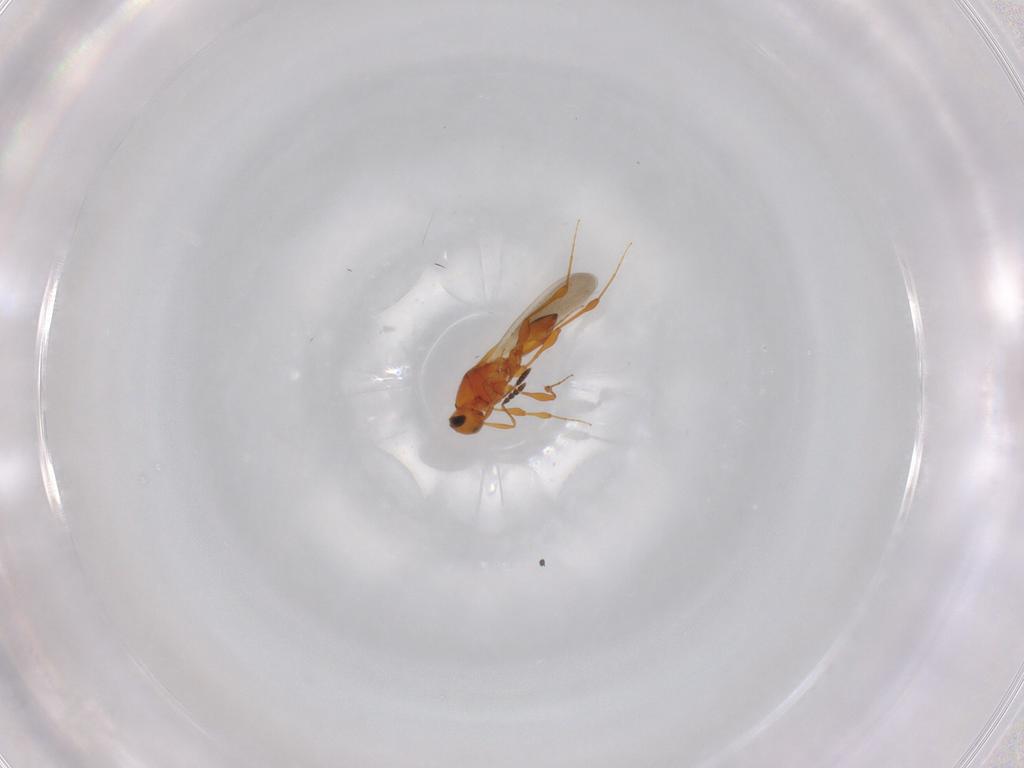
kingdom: Animalia
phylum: Arthropoda
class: Insecta
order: Hymenoptera
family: Platygastridae
